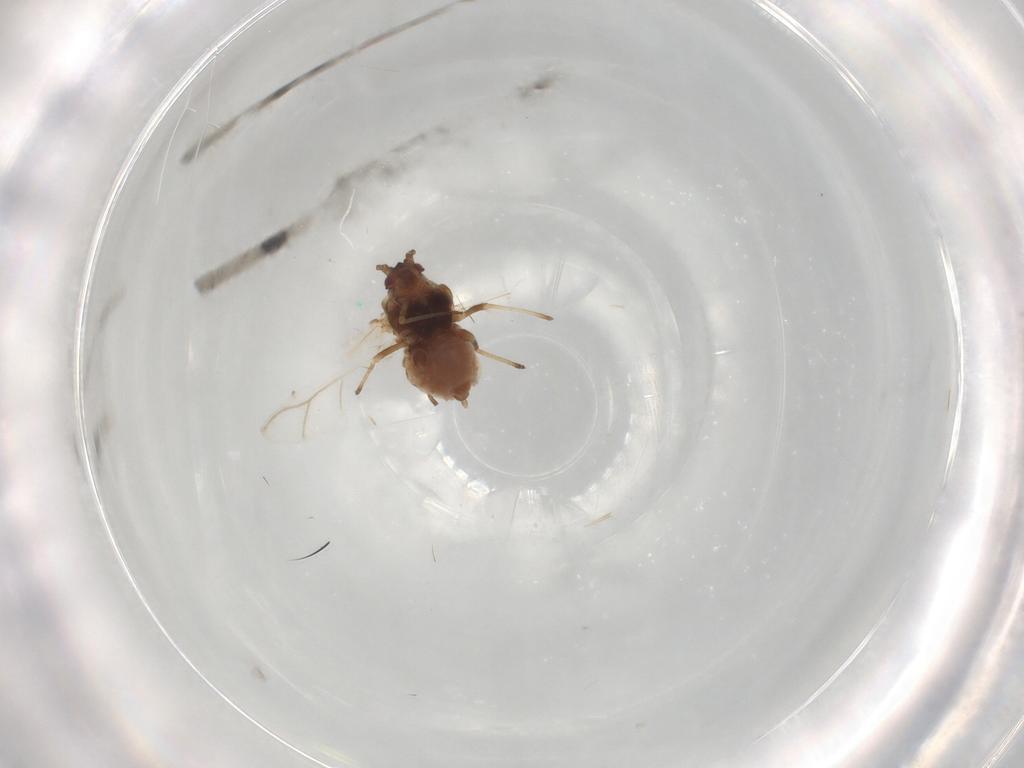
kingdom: Animalia
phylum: Arthropoda
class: Insecta
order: Hemiptera
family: Aphididae
